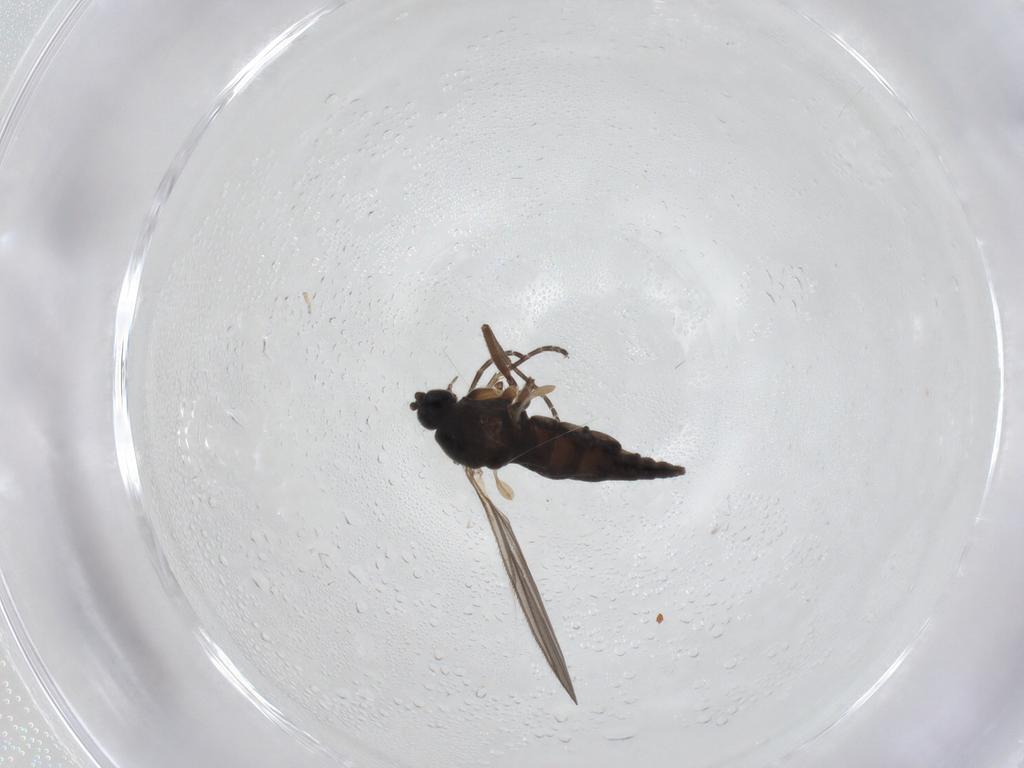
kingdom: Animalia
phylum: Arthropoda
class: Insecta
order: Diptera
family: Sciaridae
